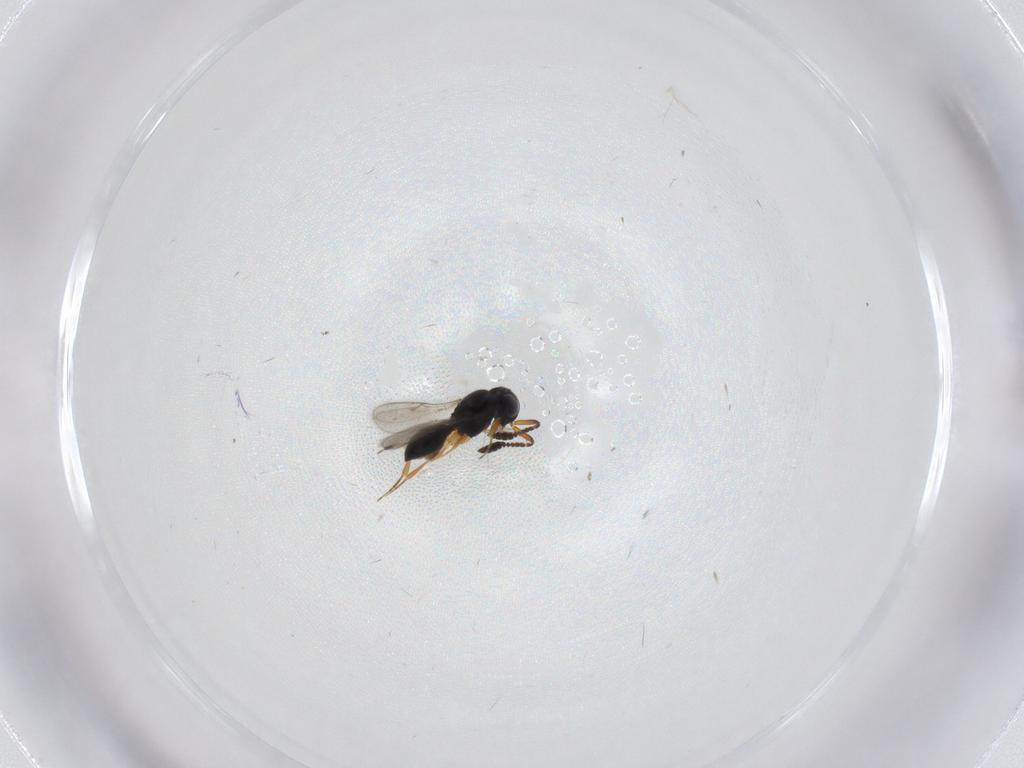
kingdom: Animalia
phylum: Arthropoda
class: Insecta
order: Hymenoptera
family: Scelionidae
